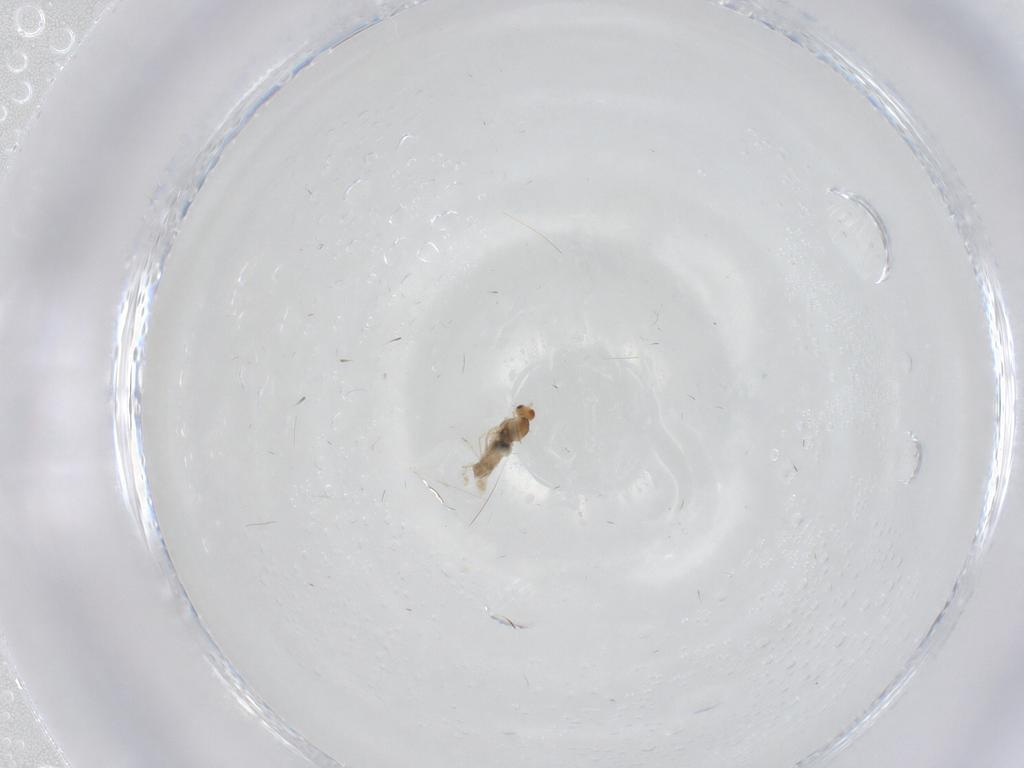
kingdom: Animalia
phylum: Arthropoda
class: Insecta
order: Diptera
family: Cecidomyiidae
